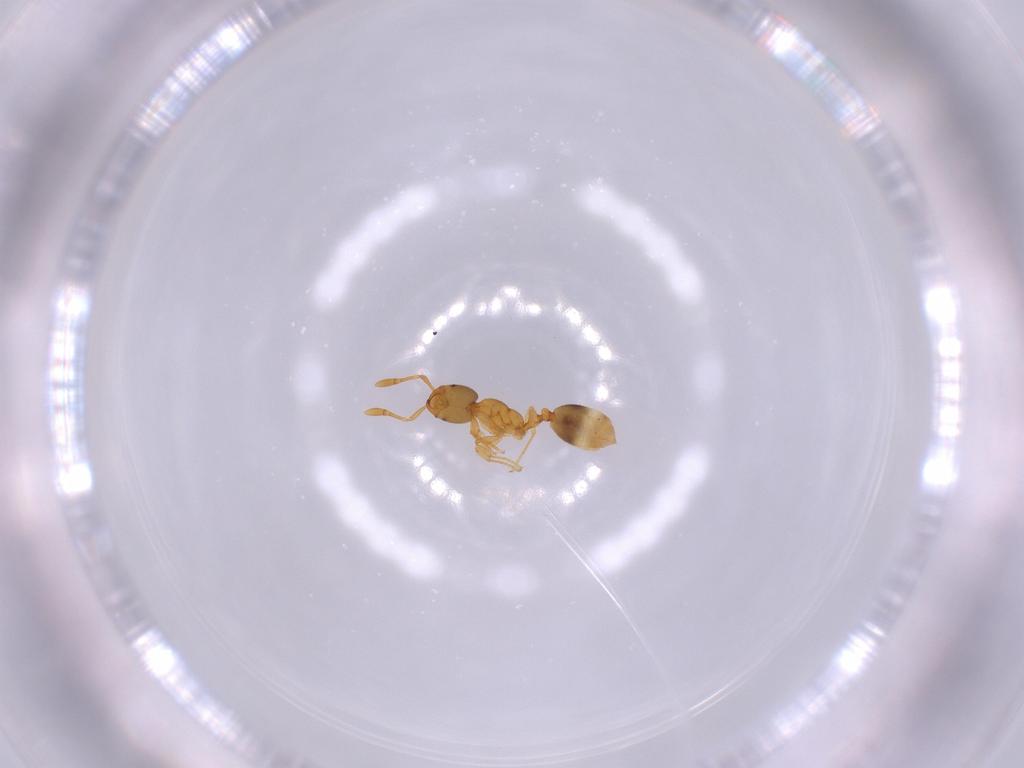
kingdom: Animalia
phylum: Arthropoda
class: Insecta
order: Hymenoptera
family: Formicidae
